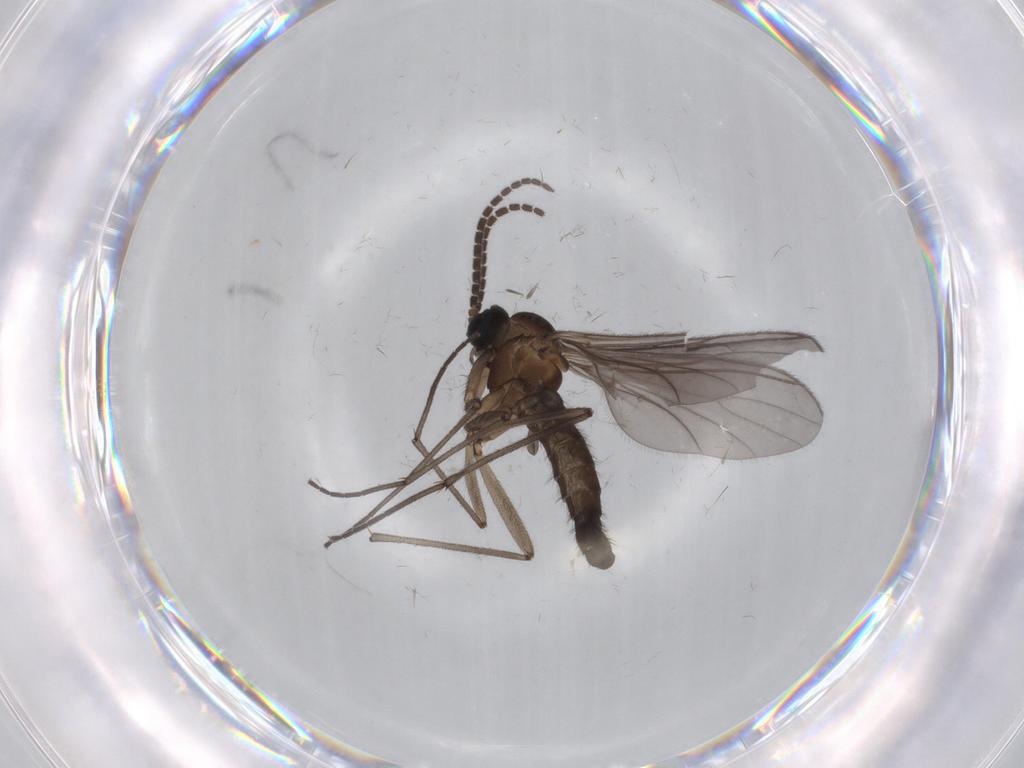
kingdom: Animalia
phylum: Arthropoda
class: Insecta
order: Diptera
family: Sciaridae
